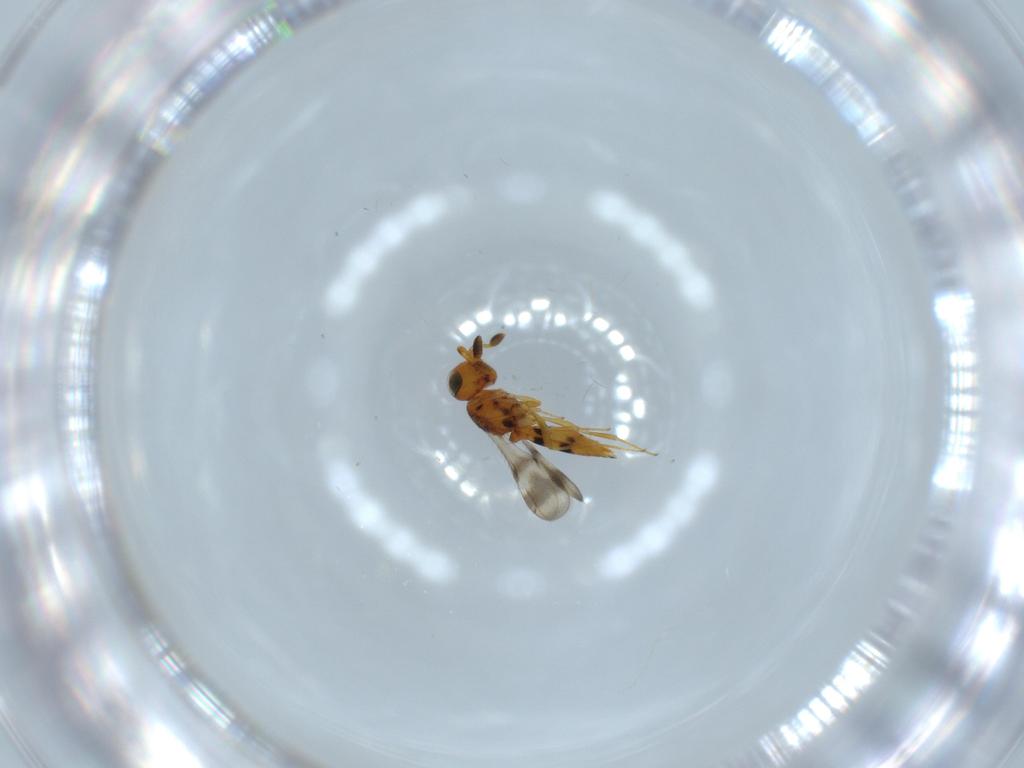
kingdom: Animalia
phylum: Arthropoda
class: Insecta
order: Hymenoptera
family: Scelionidae
